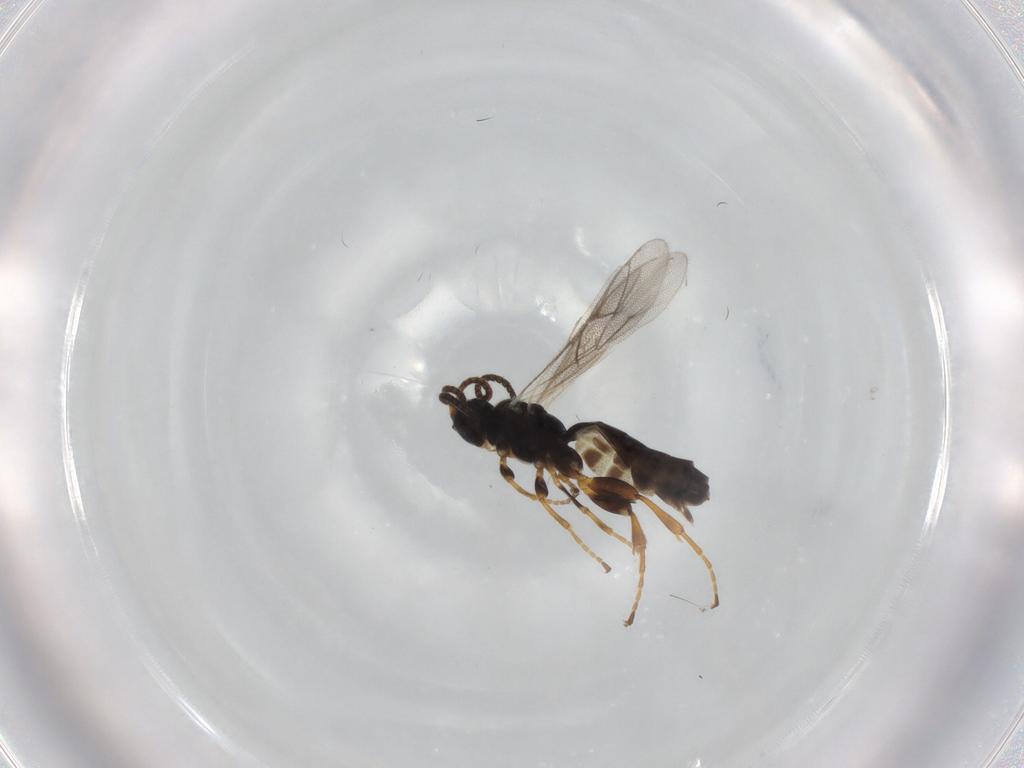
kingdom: Animalia
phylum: Arthropoda
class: Insecta
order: Hymenoptera
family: Ichneumonidae
